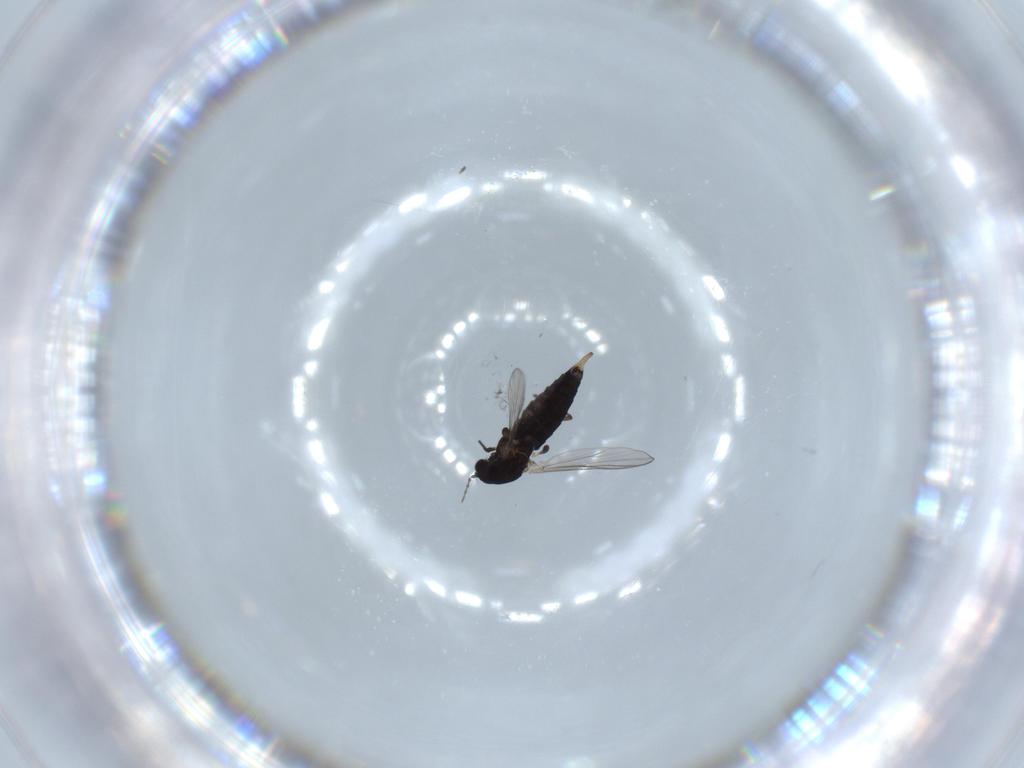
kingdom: Animalia
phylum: Arthropoda
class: Insecta
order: Diptera
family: Chironomidae
